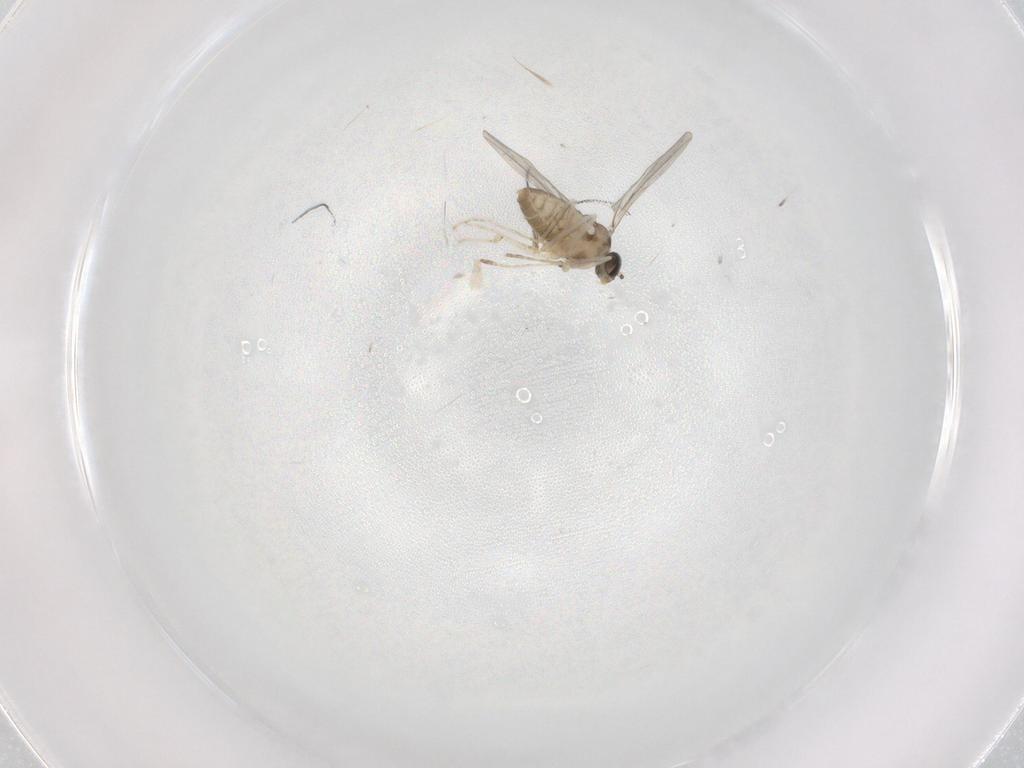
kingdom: Animalia
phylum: Arthropoda
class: Insecta
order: Diptera
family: Cecidomyiidae
